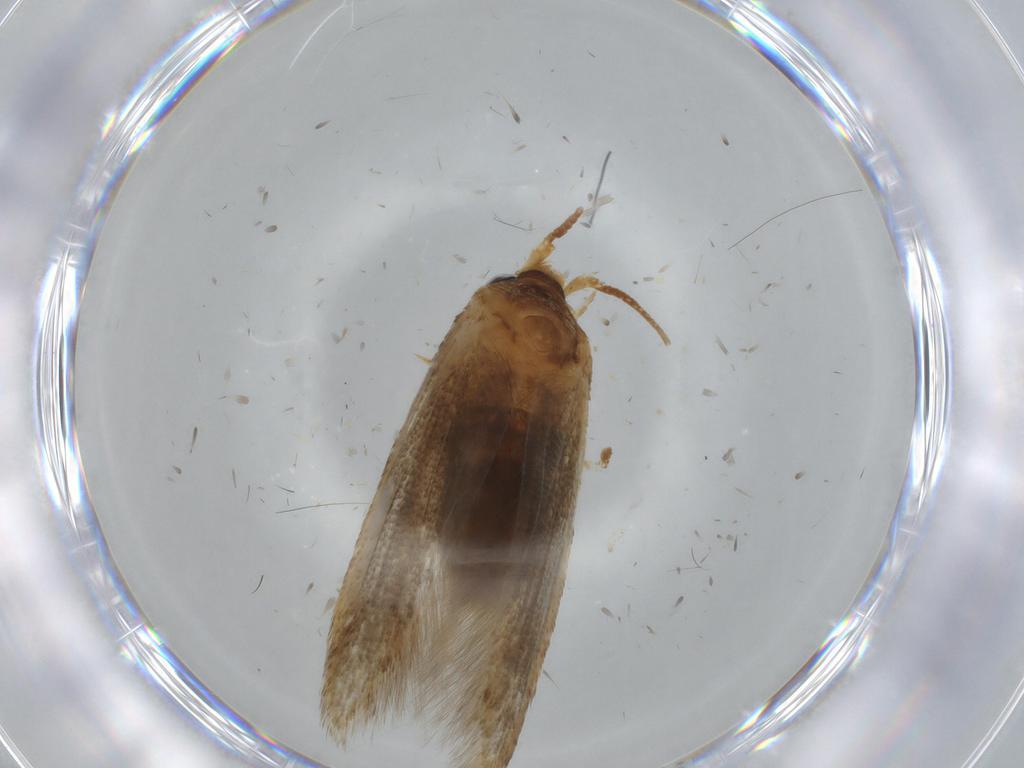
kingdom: Animalia
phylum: Arthropoda
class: Insecta
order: Lepidoptera
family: Blastobasidae
